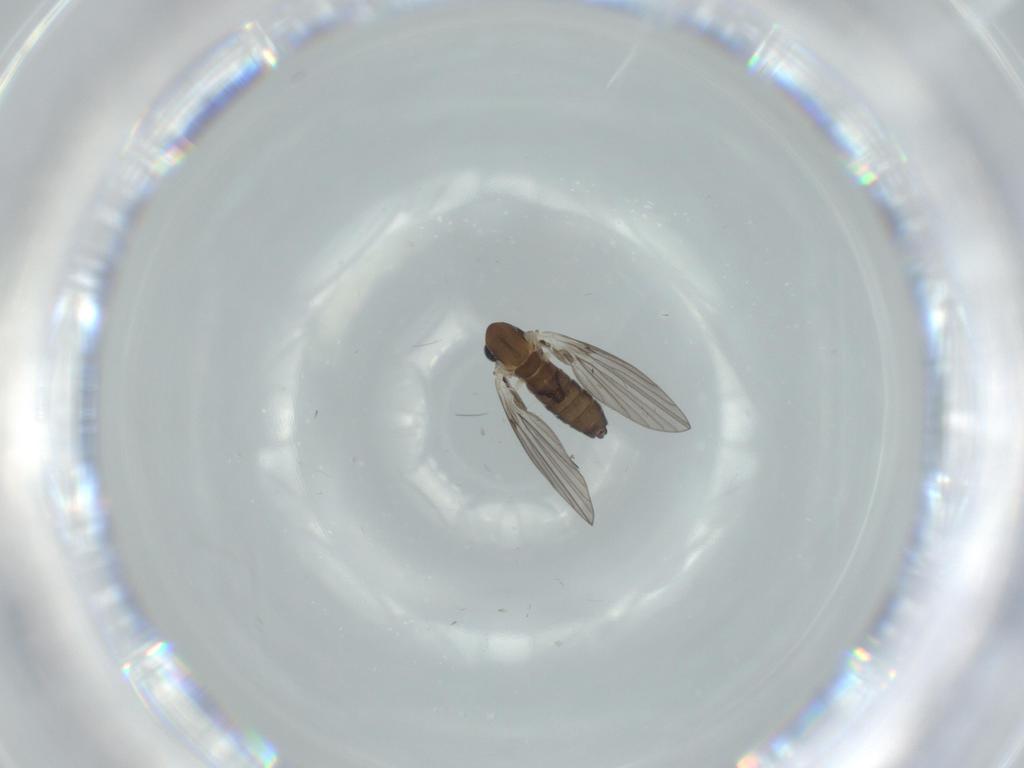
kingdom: Animalia
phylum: Arthropoda
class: Insecta
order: Diptera
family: Psychodidae
